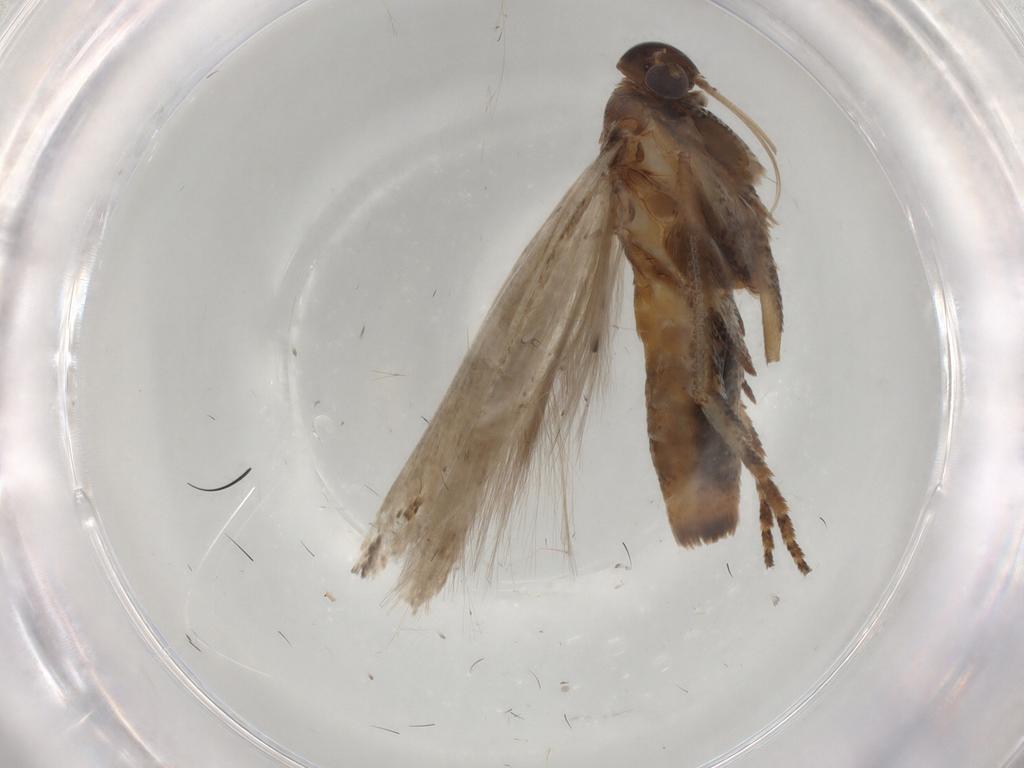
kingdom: Animalia
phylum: Arthropoda
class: Insecta
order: Lepidoptera
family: Gelechiidae
